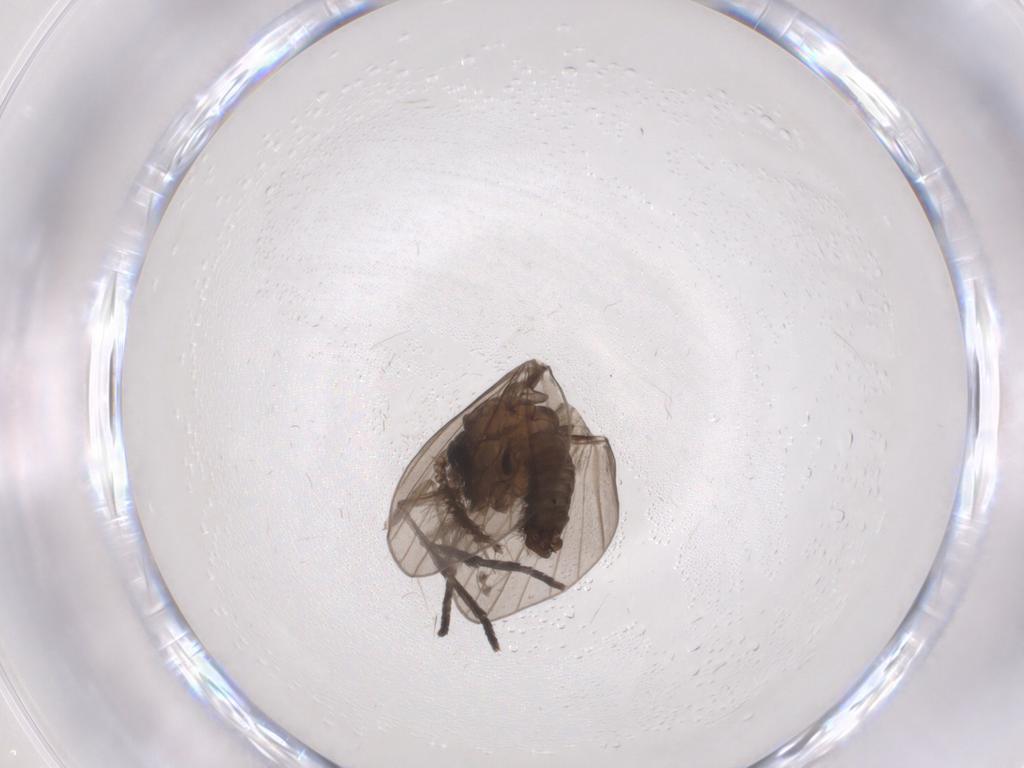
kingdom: Animalia
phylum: Arthropoda
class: Insecta
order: Diptera
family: Psychodidae
